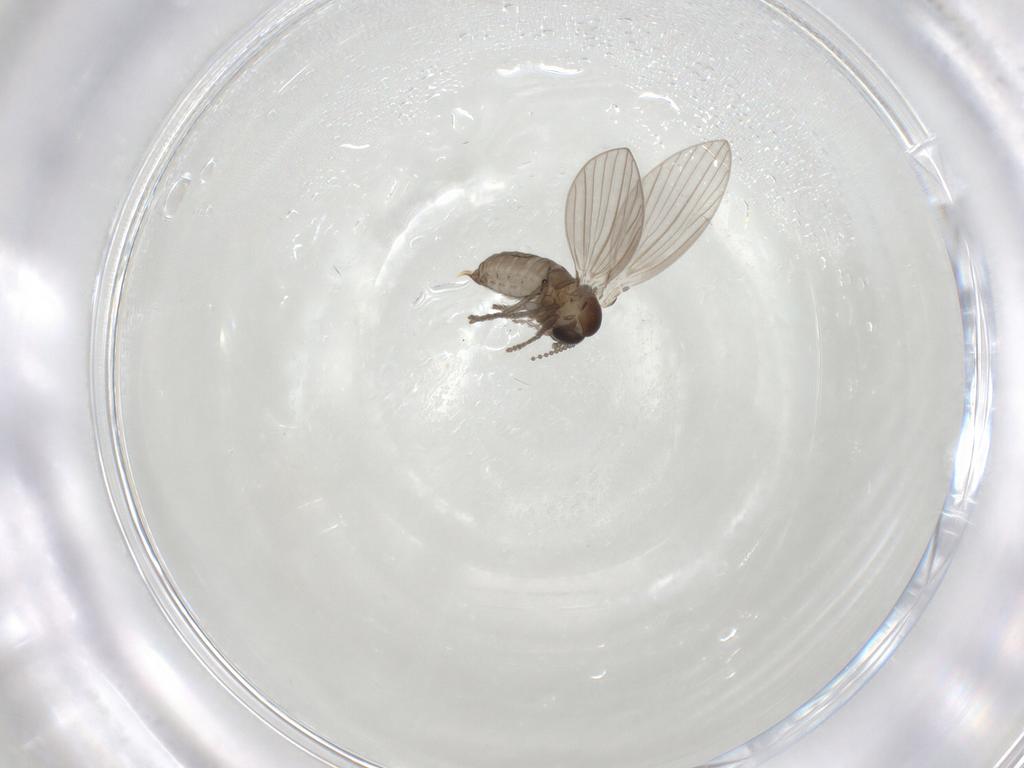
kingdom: Animalia
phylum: Arthropoda
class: Insecta
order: Diptera
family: Psychodidae
